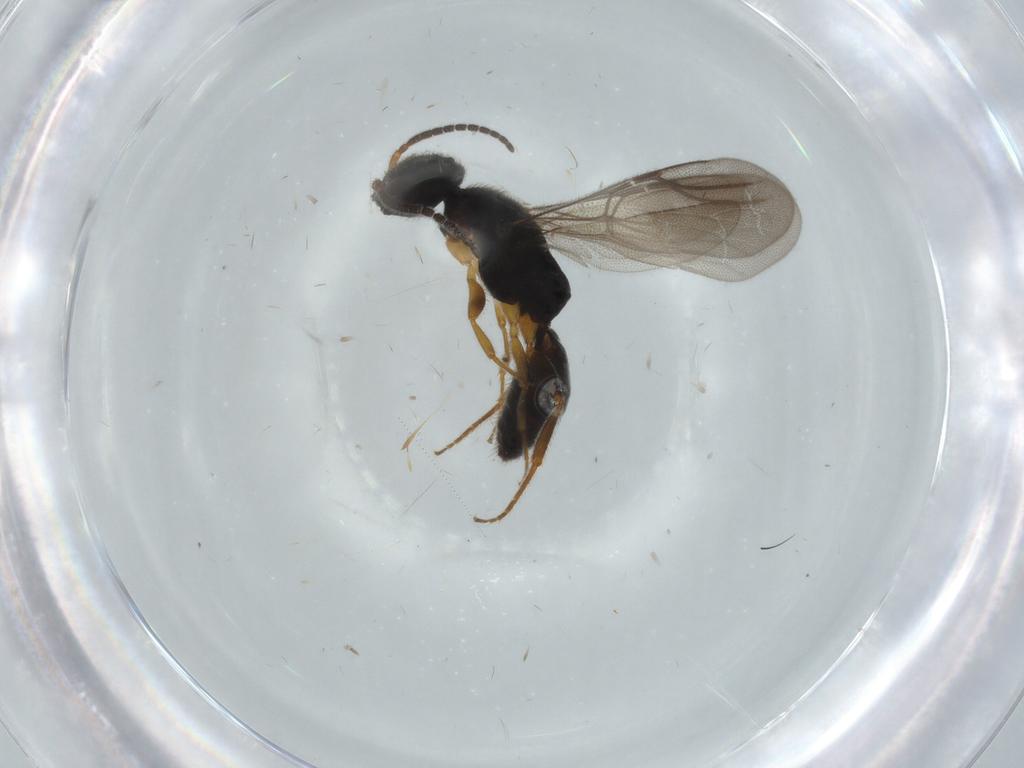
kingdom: Animalia
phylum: Arthropoda
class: Insecta
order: Hymenoptera
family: Bethylidae
